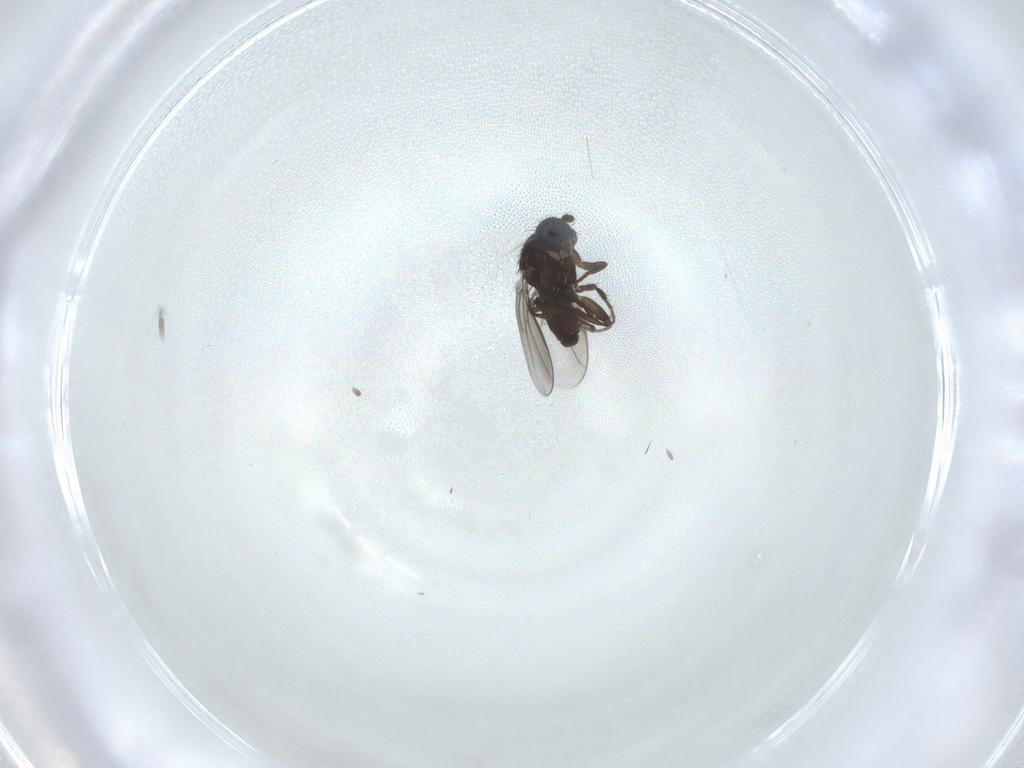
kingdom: Animalia
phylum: Arthropoda
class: Insecta
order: Diptera
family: Sphaeroceridae
